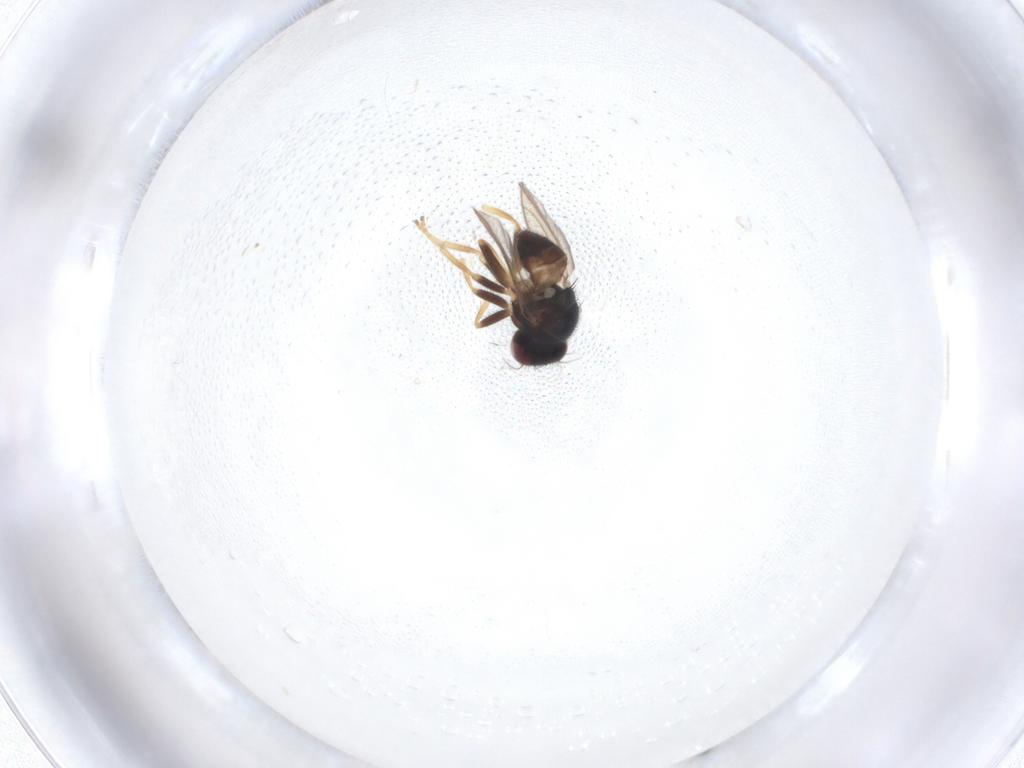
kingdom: Animalia
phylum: Arthropoda
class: Insecta
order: Diptera
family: Chloropidae
